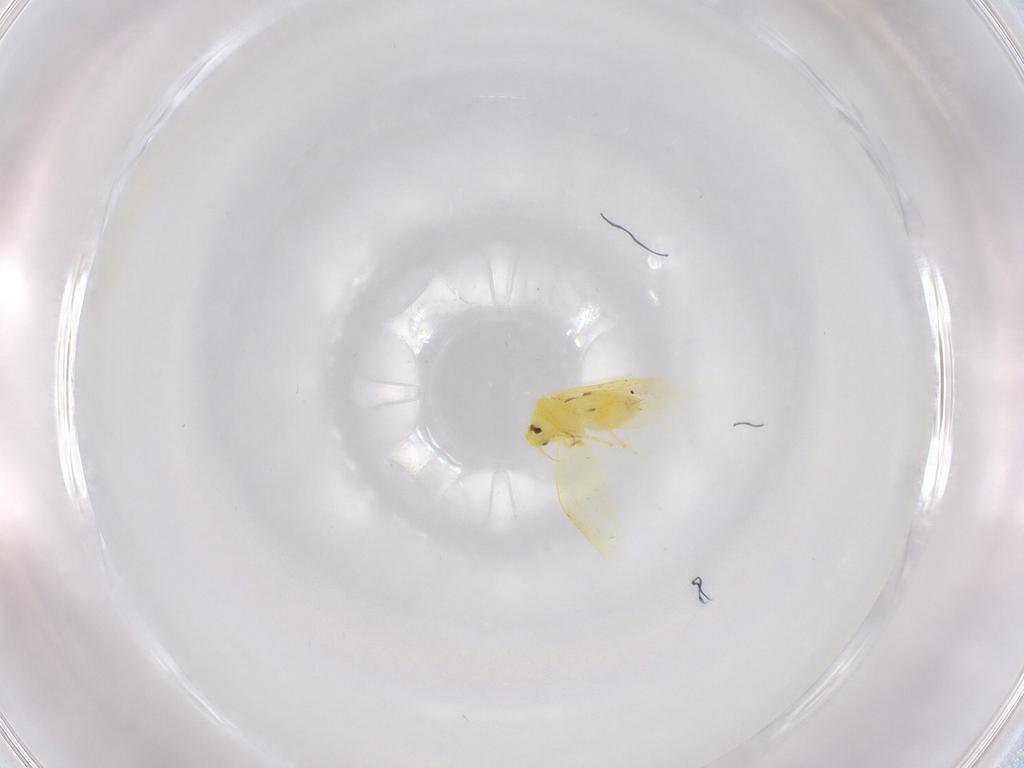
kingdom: Animalia
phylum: Arthropoda
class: Insecta
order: Hemiptera
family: Aleyrodidae
